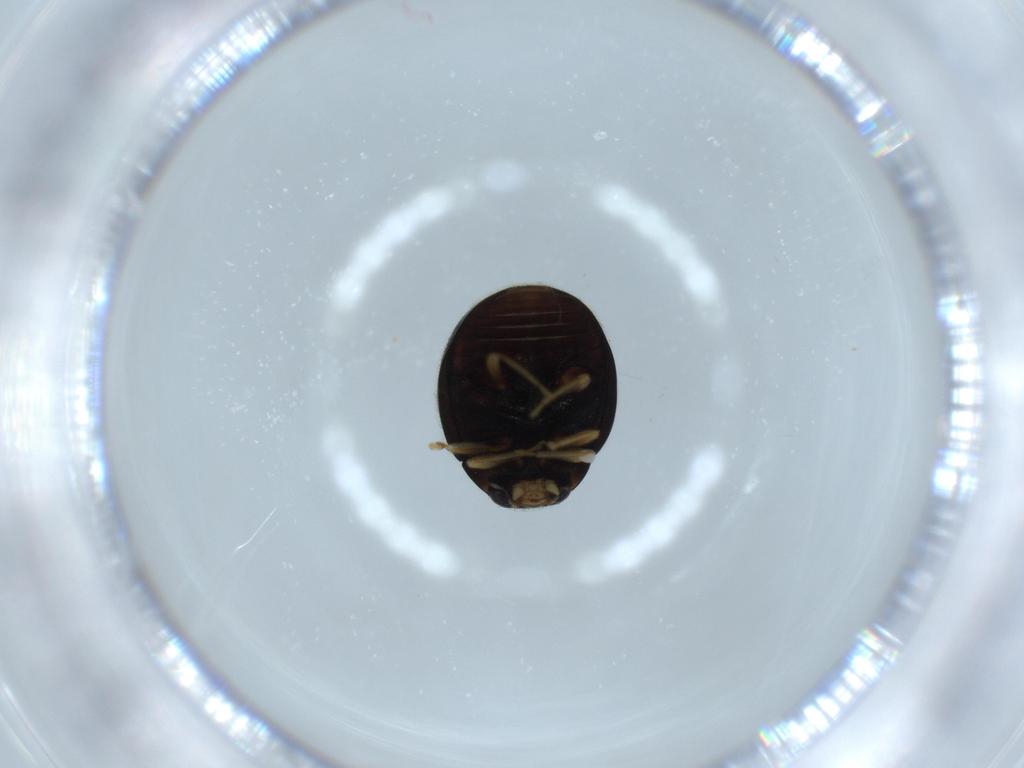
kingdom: Animalia
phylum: Arthropoda
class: Insecta
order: Coleoptera
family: Coccinellidae
